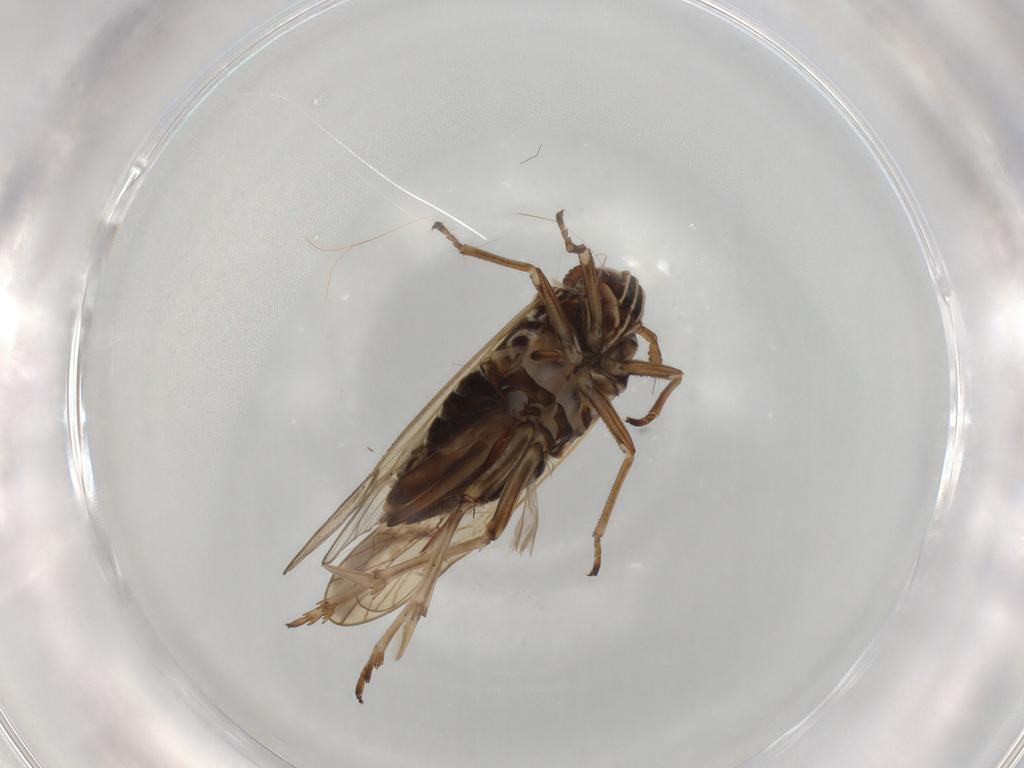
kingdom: Animalia
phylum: Arthropoda
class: Insecta
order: Hemiptera
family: Delphacidae
